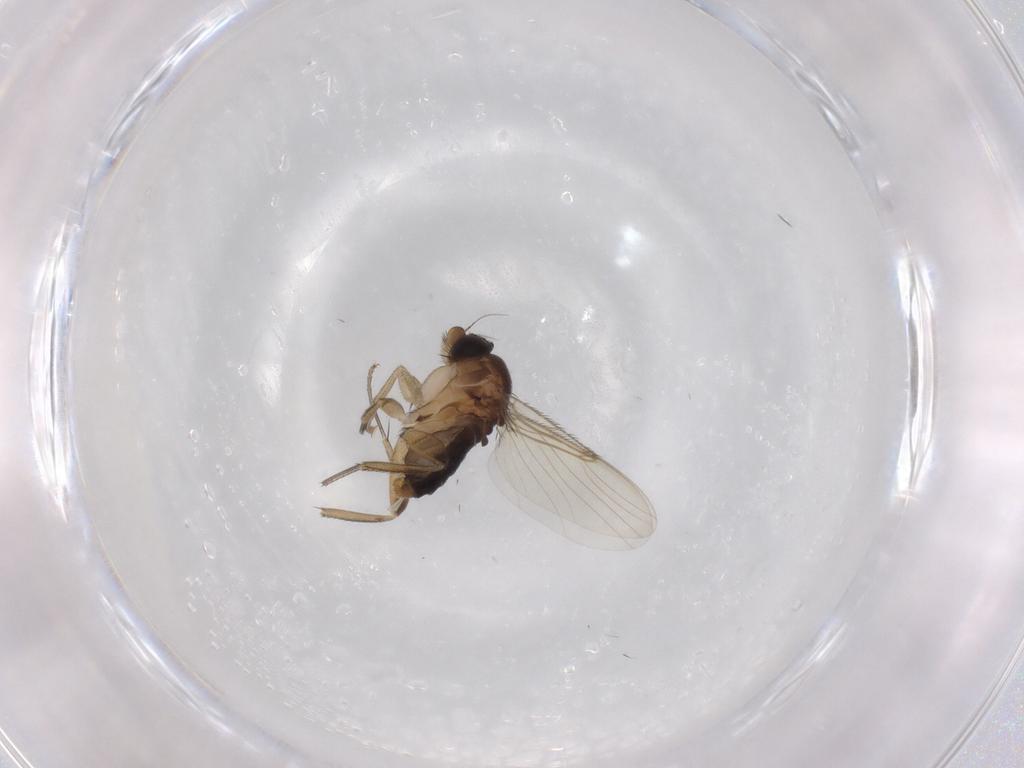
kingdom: Animalia
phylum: Arthropoda
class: Insecta
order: Diptera
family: Phoridae
